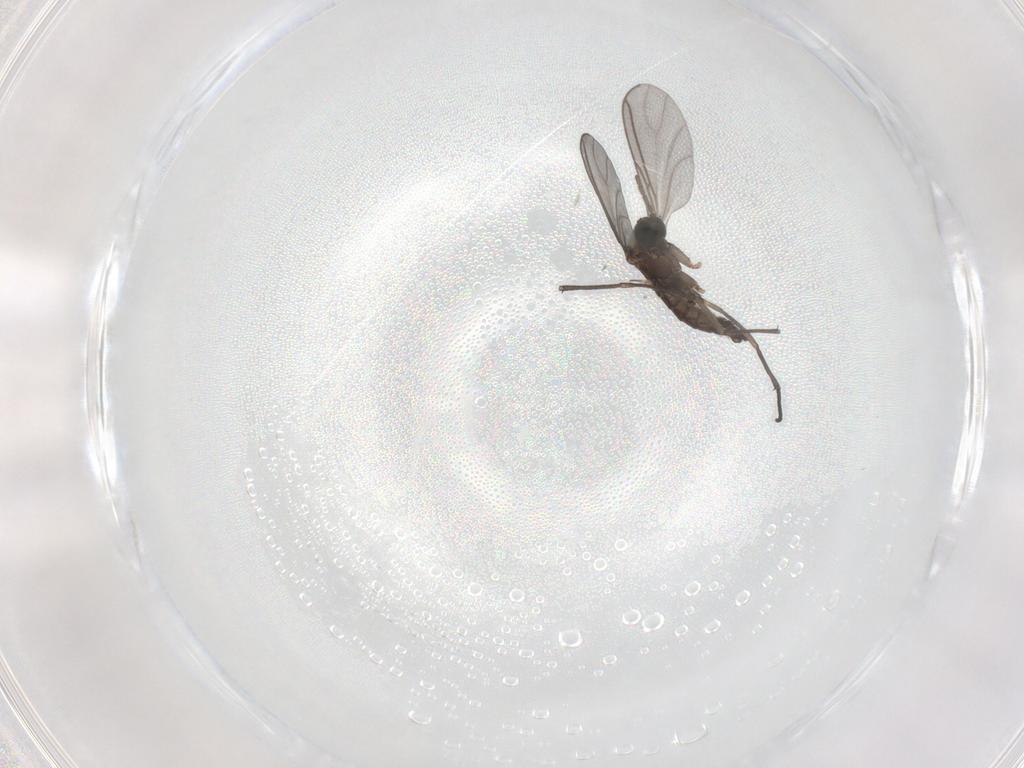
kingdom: Animalia
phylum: Arthropoda
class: Insecta
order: Diptera
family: Sciaridae
